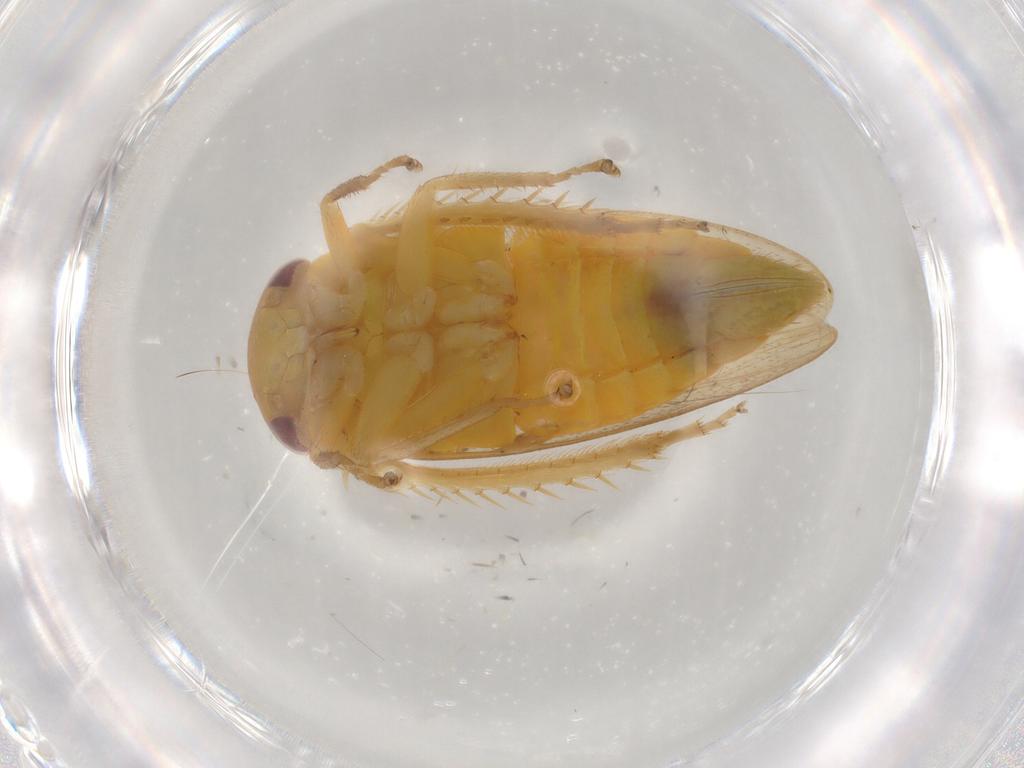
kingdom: Animalia
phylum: Arthropoda
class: Insecta
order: Hemiptera
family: Cicadellidae
